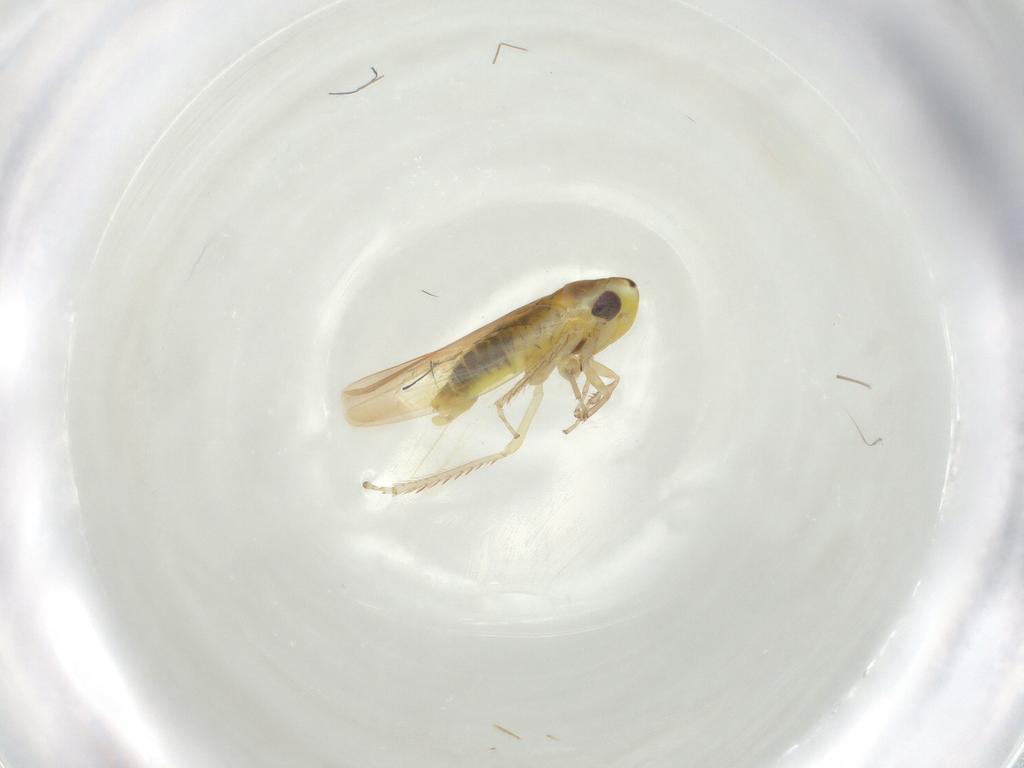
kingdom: Animalia
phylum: Arthropoda
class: Insecta
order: Hemiptera
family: Cicadellidae
